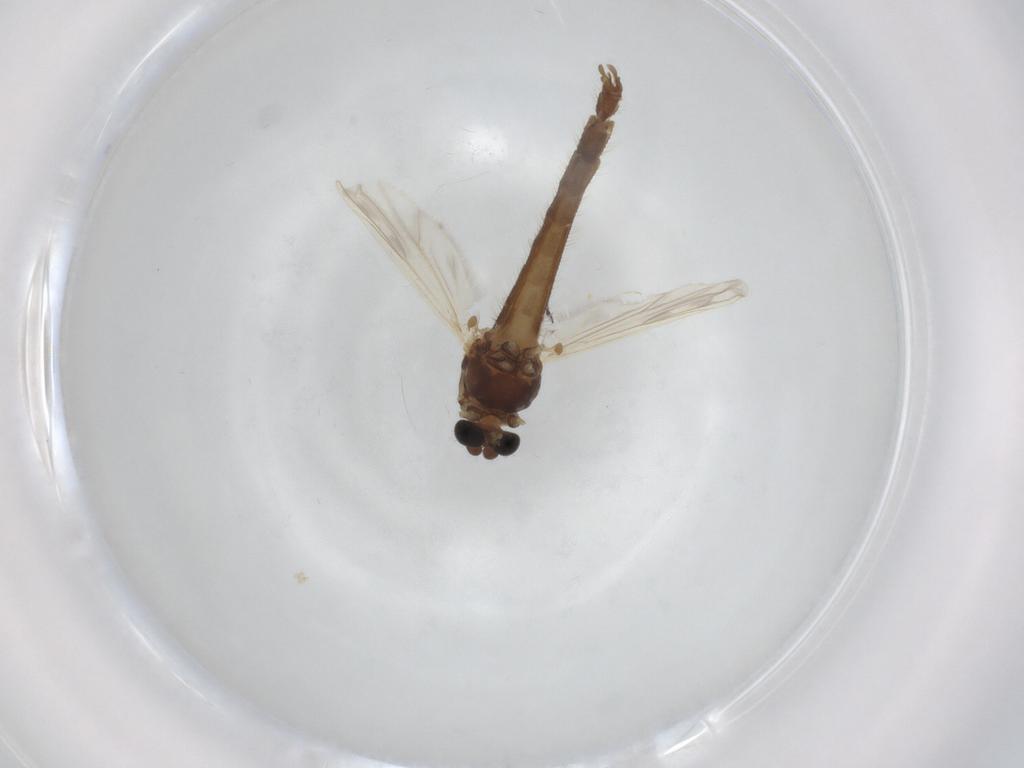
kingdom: Animalia
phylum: Arthropoda
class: Insecta
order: Diptera
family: Chironomidae
